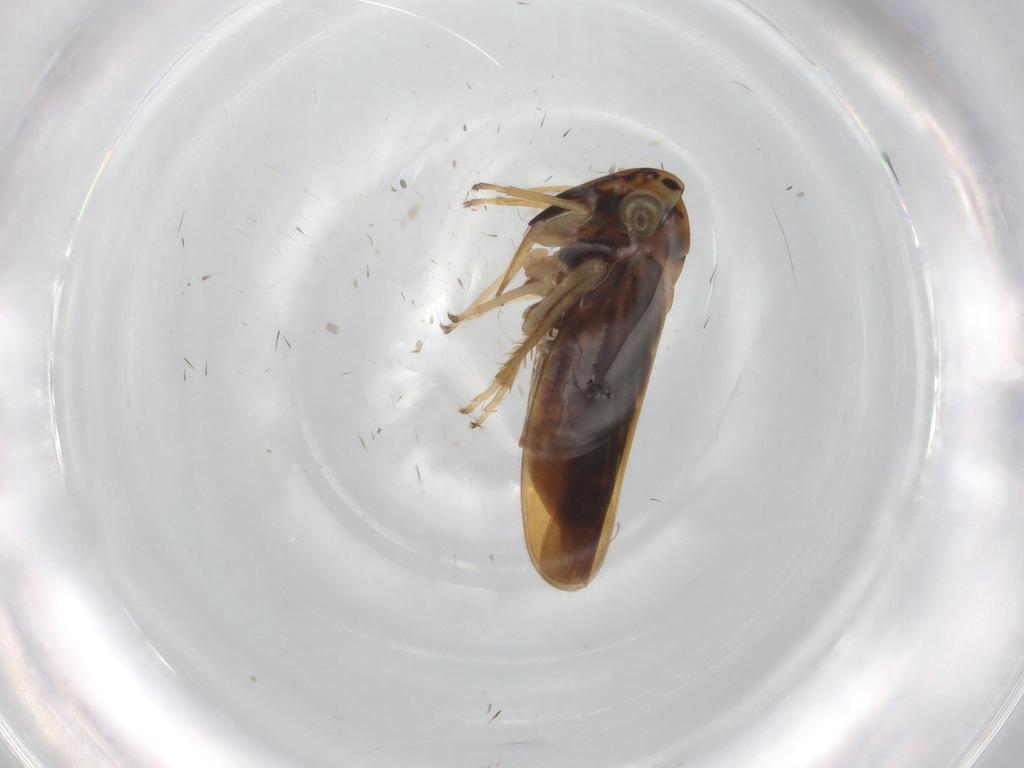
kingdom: Animalia
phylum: Arthropoda
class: Insecta
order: Hemiptera
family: Cicadellidae
